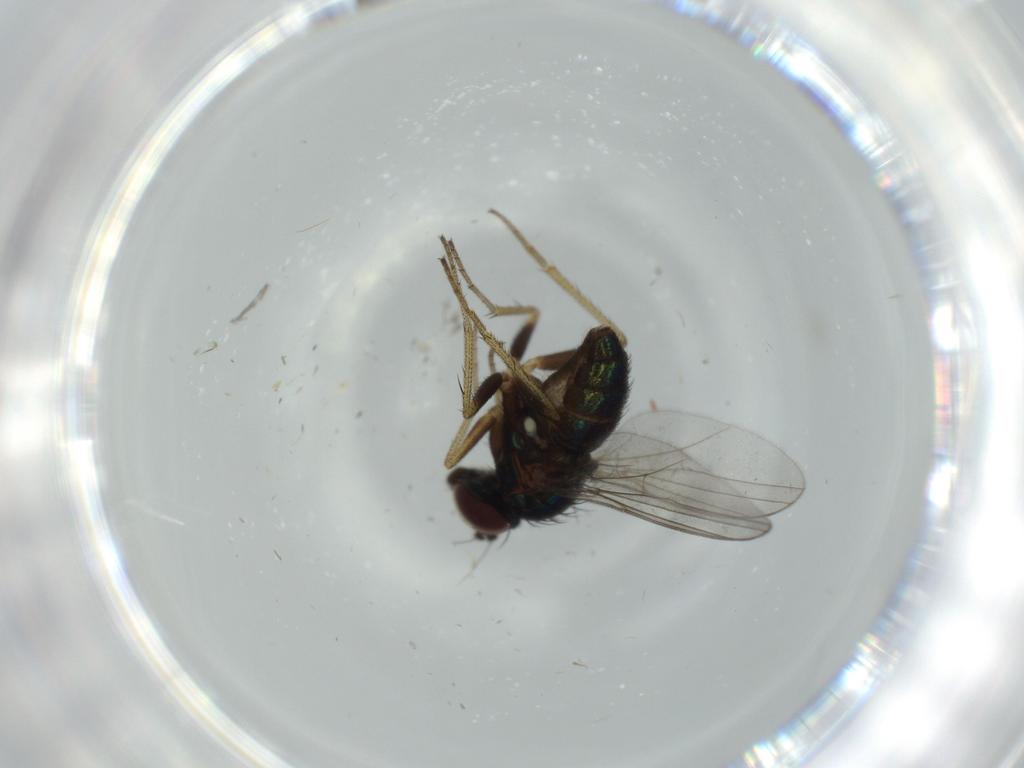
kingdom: Animalia
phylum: Arthropoda
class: Insecta
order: Diptera
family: Dolichopodidae
